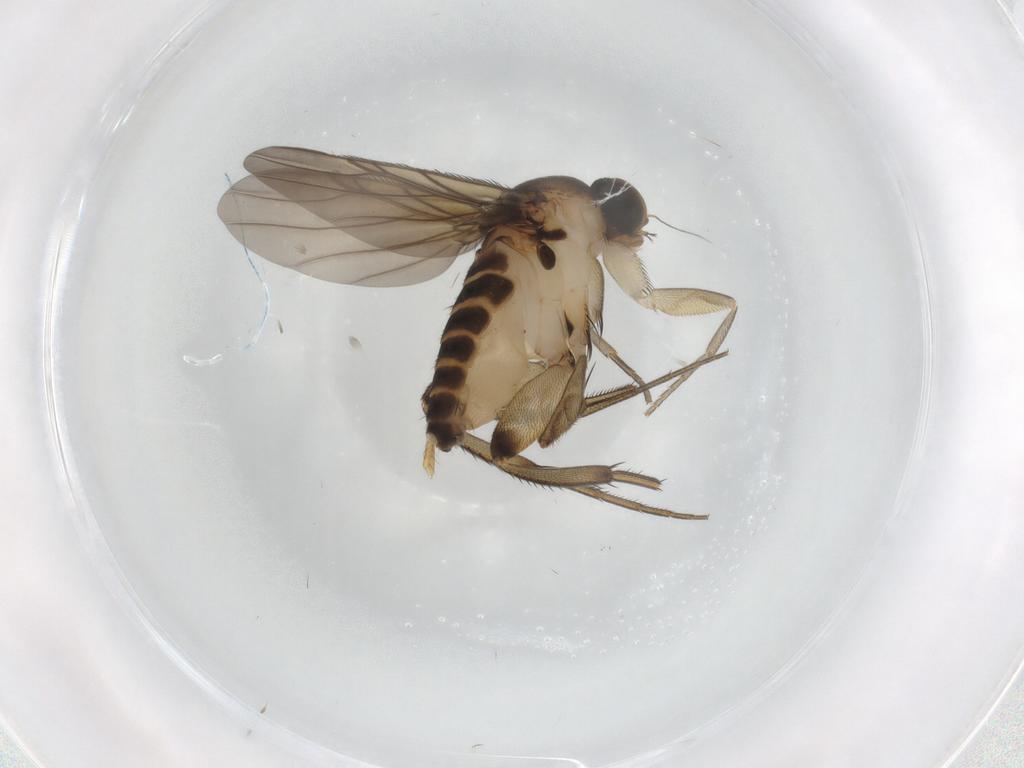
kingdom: Animalia
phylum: Arthropoda
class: Insecta
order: Diptera
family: Phoridae
